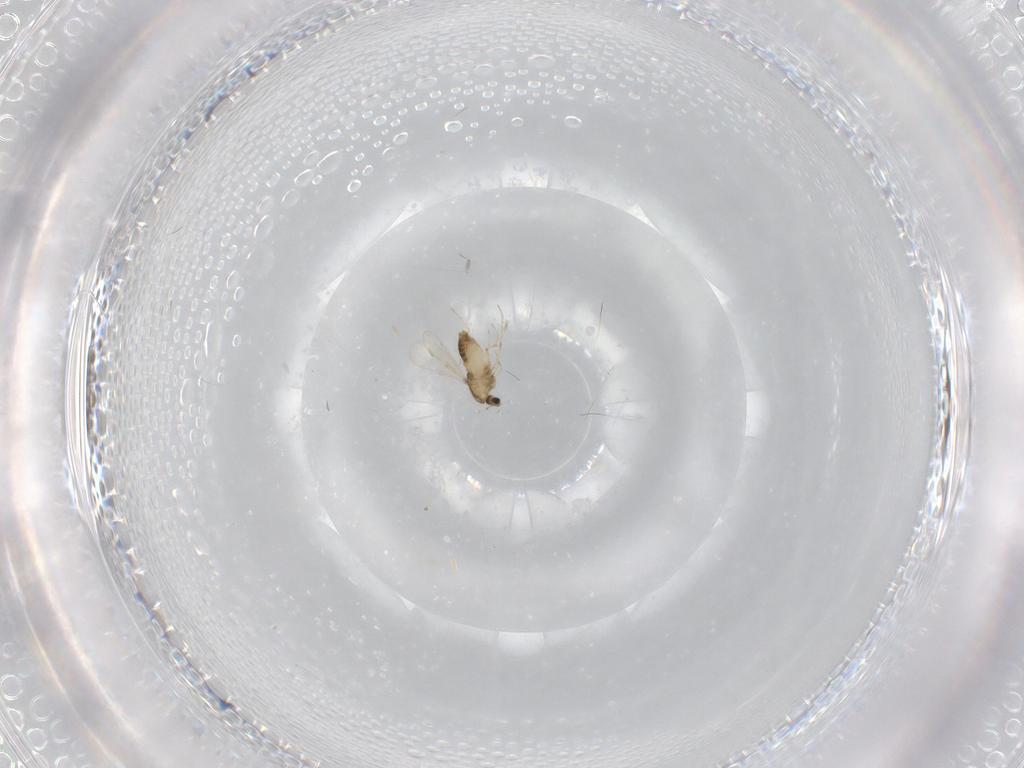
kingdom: Animalia
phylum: Arthropoda
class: Insecta
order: Diptera
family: Chironomidae
